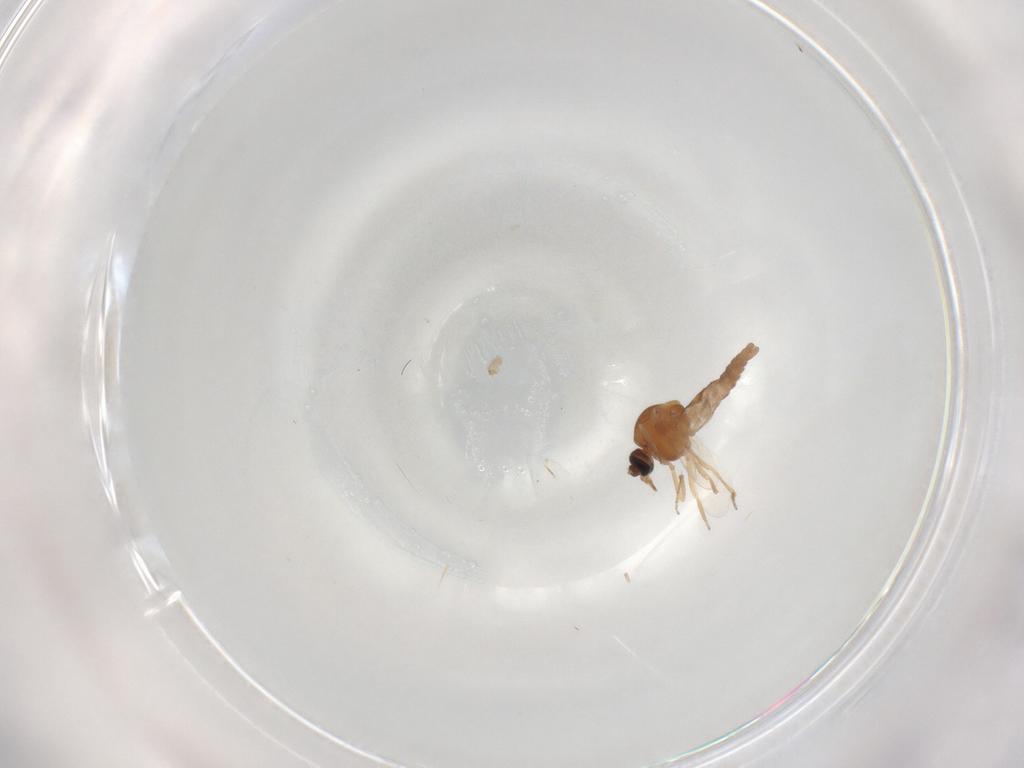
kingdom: Animalia
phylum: Arthropoda
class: Insecta
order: Diptera
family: Ceratopogonidae
